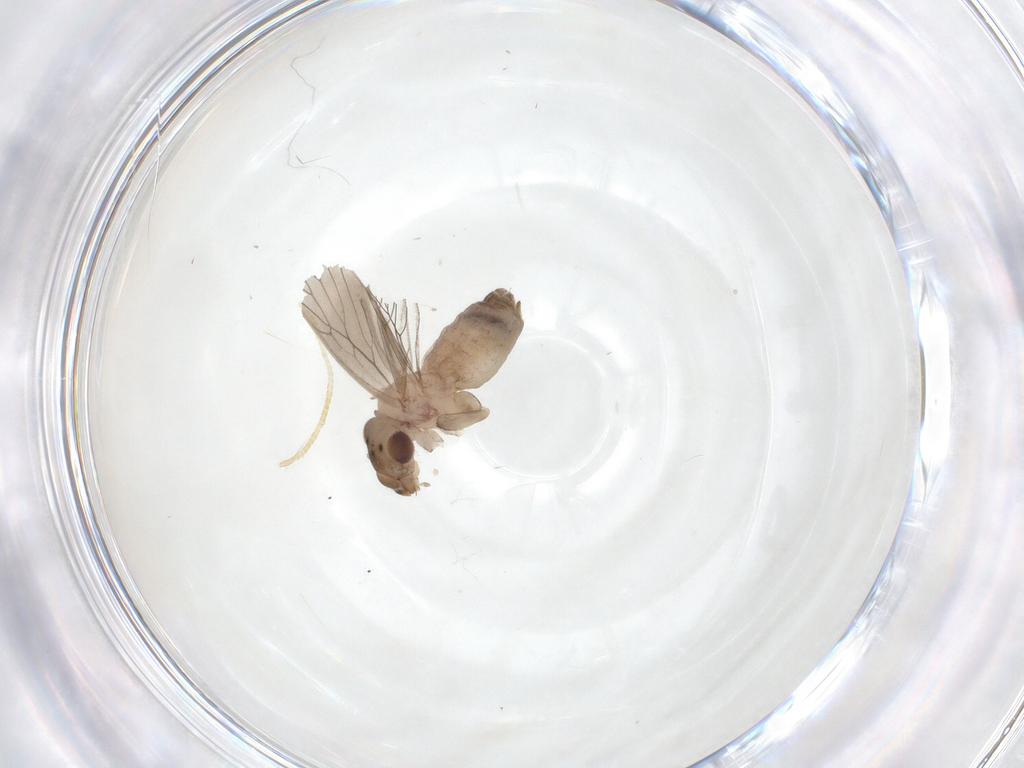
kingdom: Animalia
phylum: Arthropoda
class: Insecta
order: Psocodea
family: Lepidopsocidae
